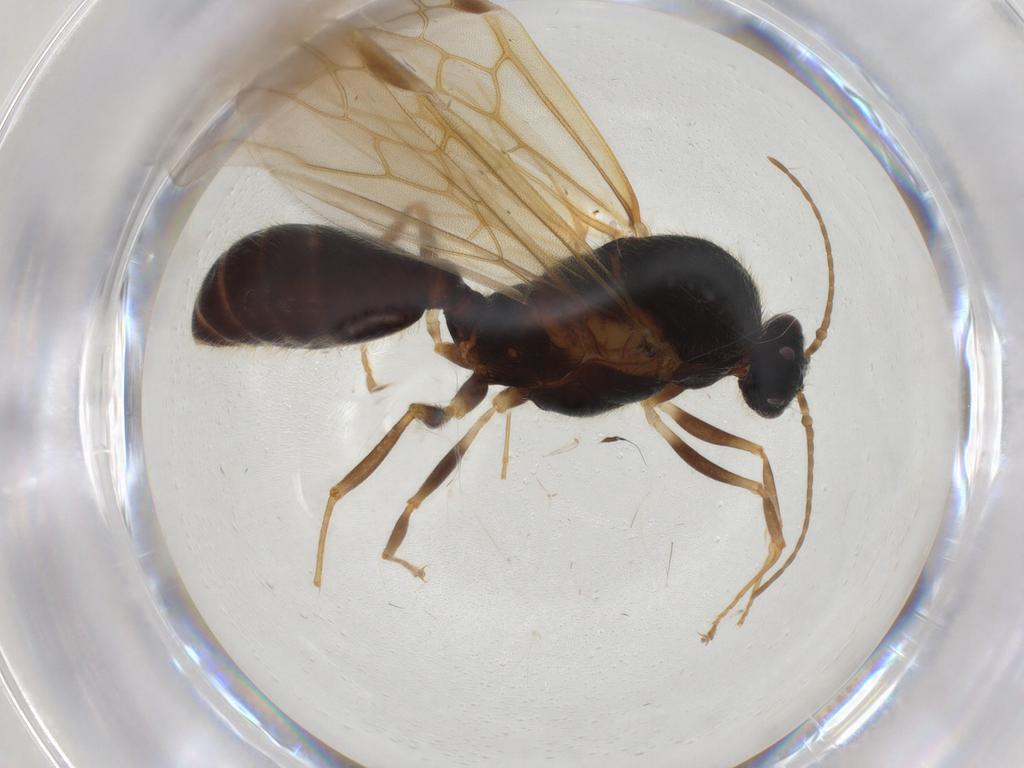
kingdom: Animalia
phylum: Arthropoda
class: Insecta
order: Hymenoptera
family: Formicidae
